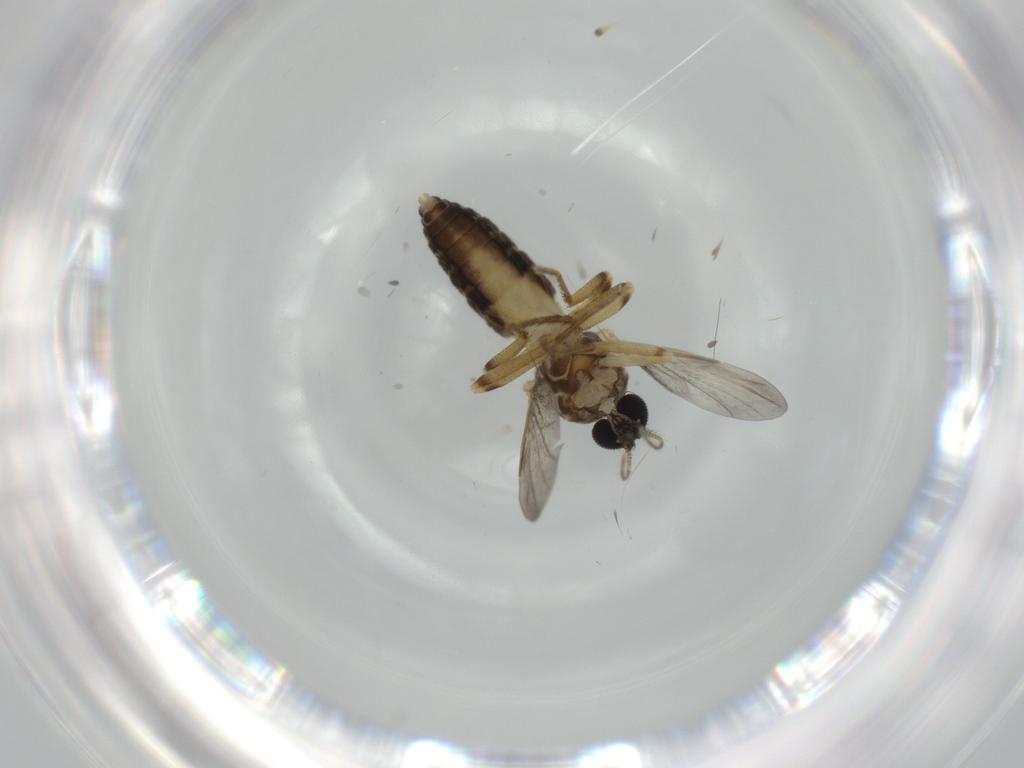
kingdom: Animalia
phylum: Arthropoda
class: Insecta
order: Diptera
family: Ceratopogonidae
